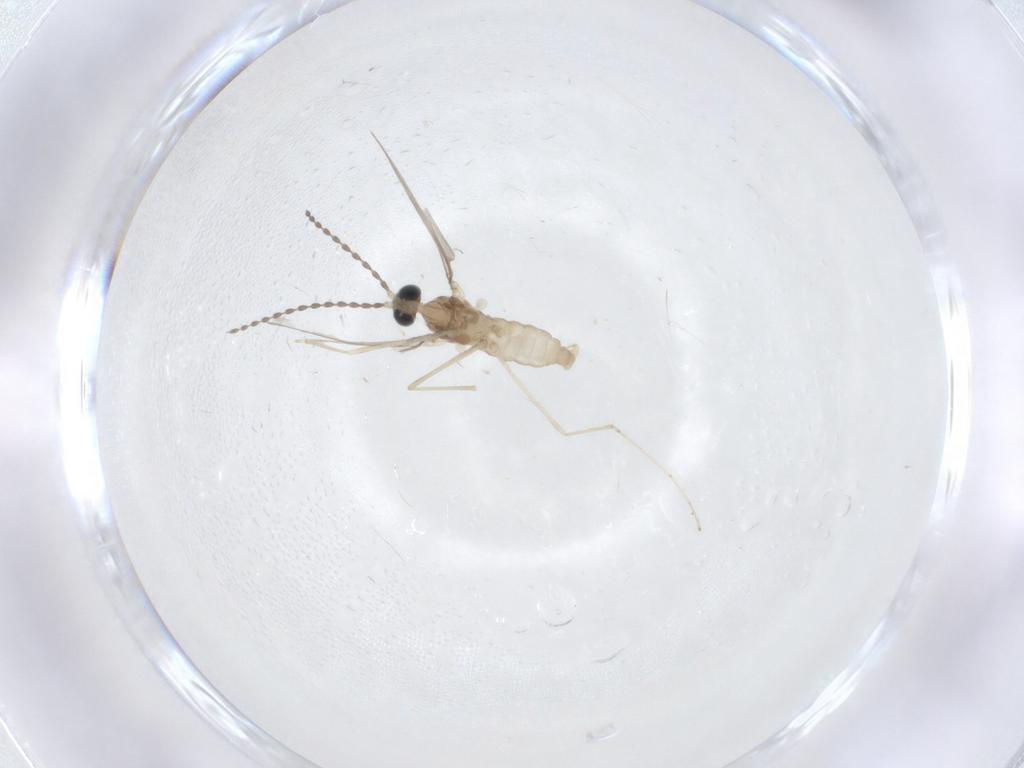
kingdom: Animalia
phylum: Arthropoda
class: Insecta
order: Diptera
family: Cecidomyiidae
